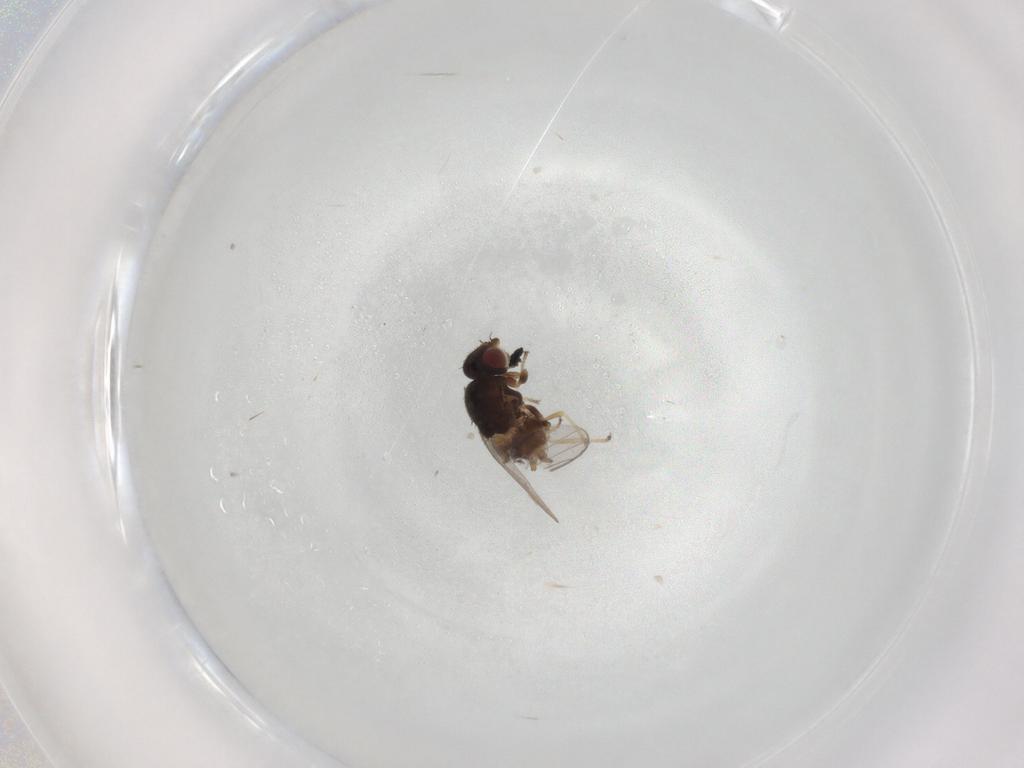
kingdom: Animalia
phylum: Arthropoda
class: Insecta
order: Diptera
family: Chloropidae
